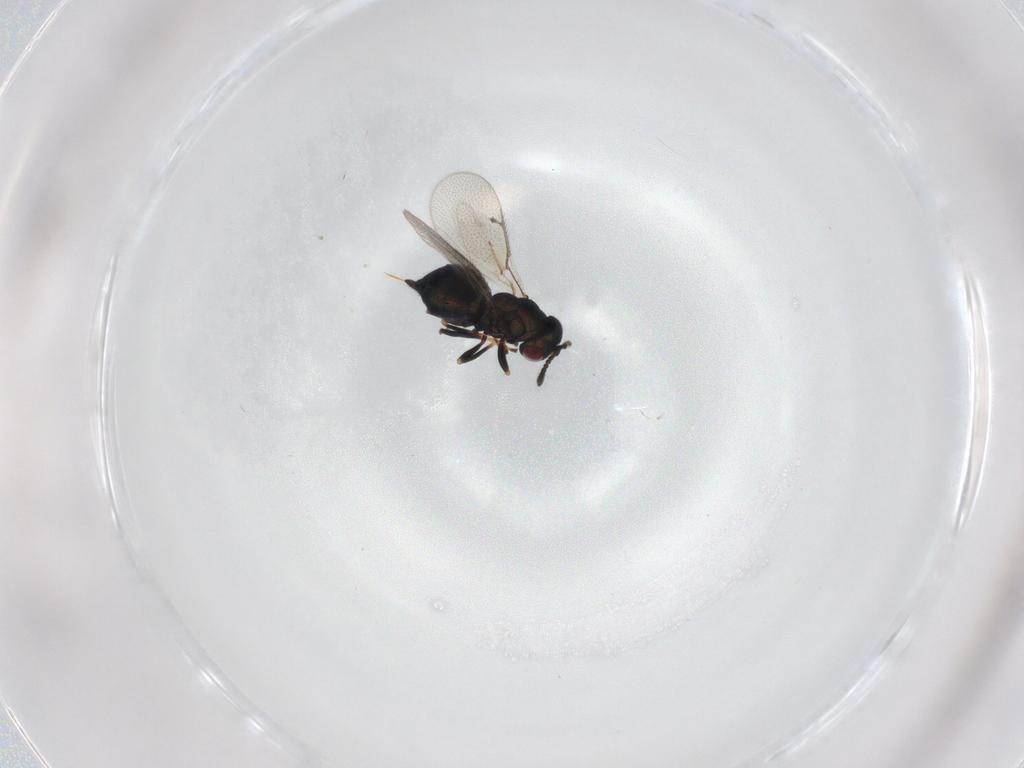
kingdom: Animalia
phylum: Arthropoda
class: Insecta
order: Hymenoptera
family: Pteromalidae
